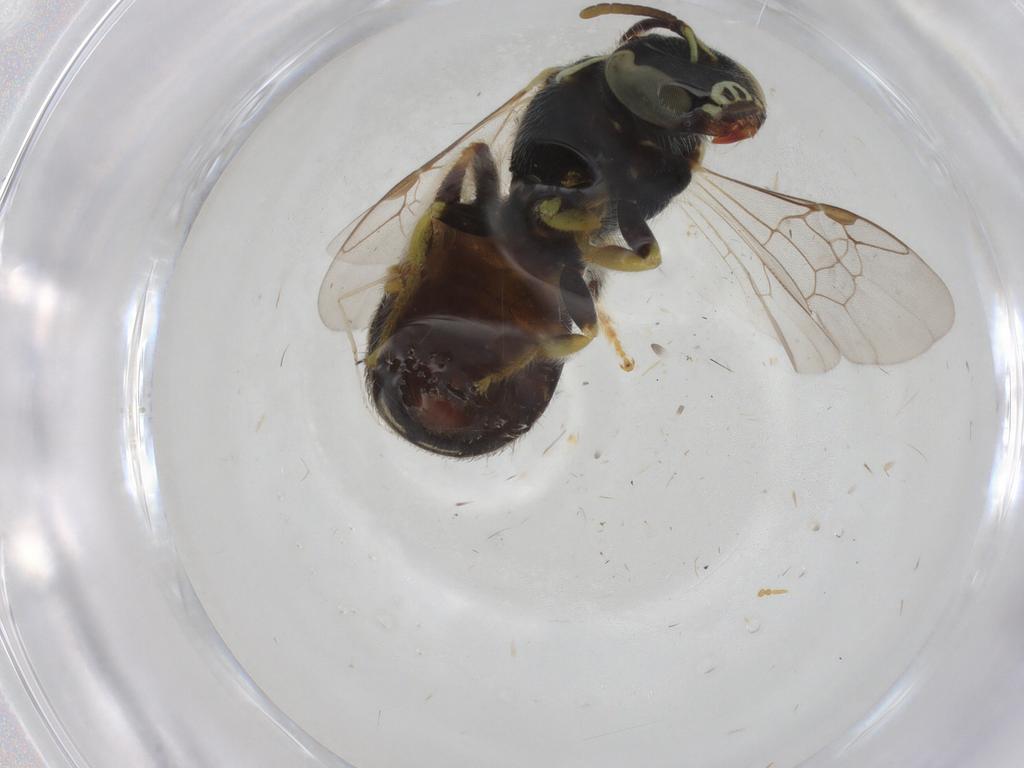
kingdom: Animalia
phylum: Arthropoda
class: Insecta
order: Hymenoptera
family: Braconidae
